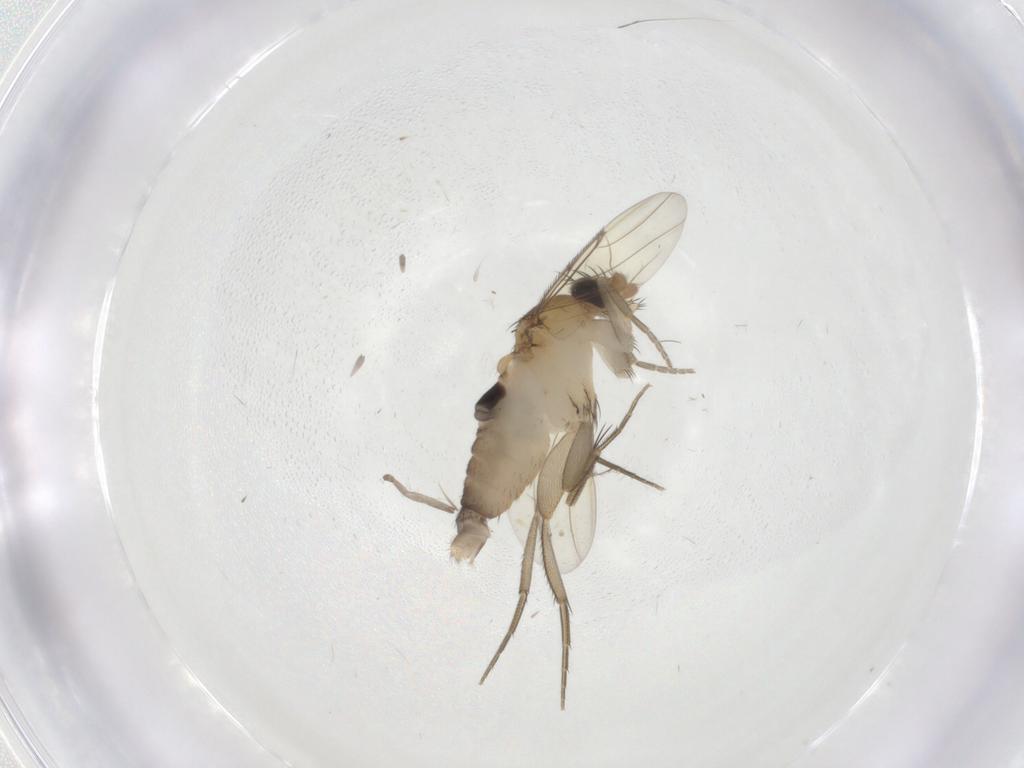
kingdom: Animalia
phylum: Arthropoda
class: Insecta
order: Diptera
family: Phoridae
